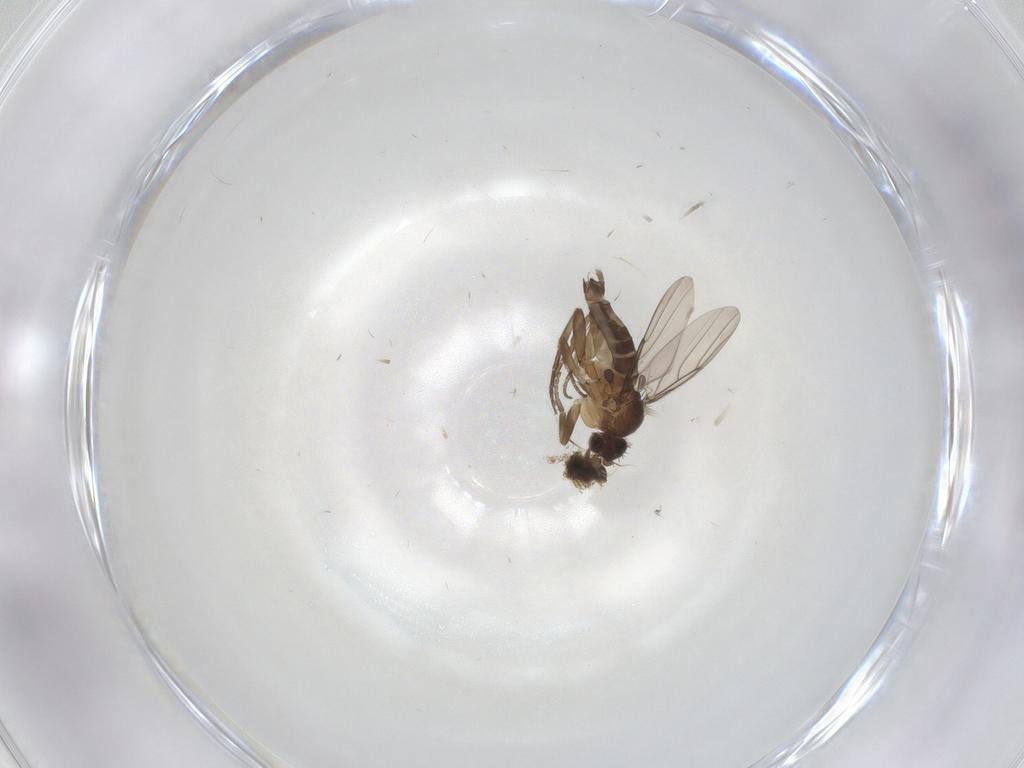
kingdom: Animalia
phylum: Arthropoda
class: Insecta
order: Diptera
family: Phoridae
